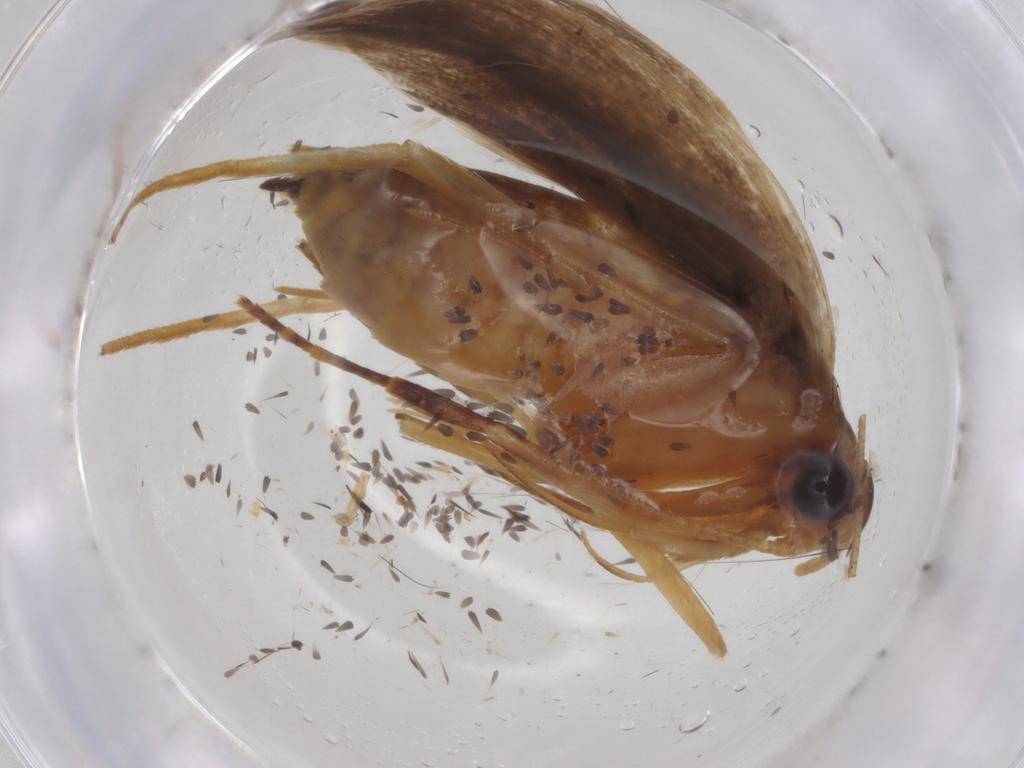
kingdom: Animalia
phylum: Arthropoda
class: Insecta
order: Lepidoptera
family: Lecithoceridae
